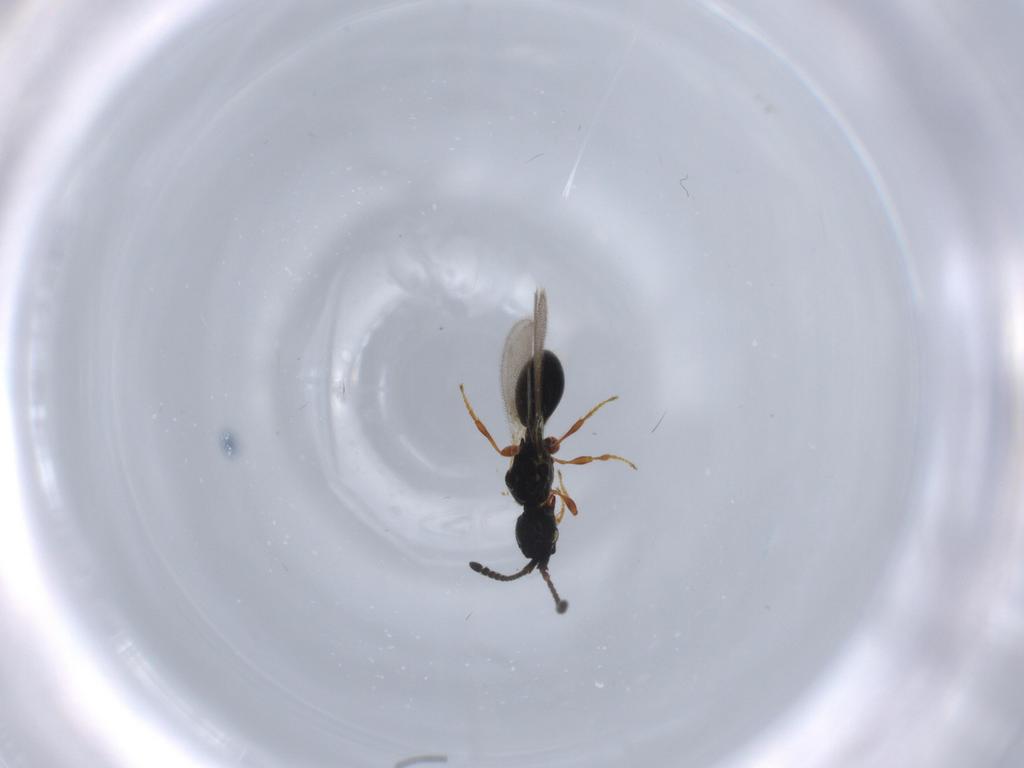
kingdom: Animalia
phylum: Arthropoda
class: Insecta
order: Hymenoptera
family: Diapriidae
